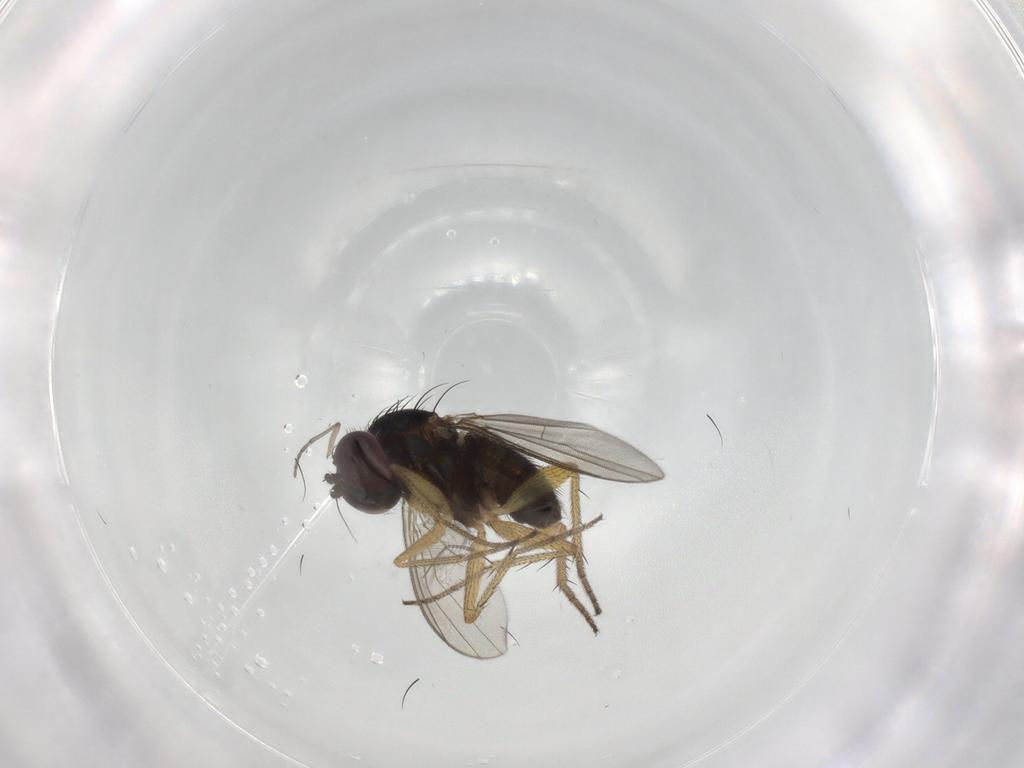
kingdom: Animalia
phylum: Arthropoda
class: Insecta
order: Diptera
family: Sciaridae
